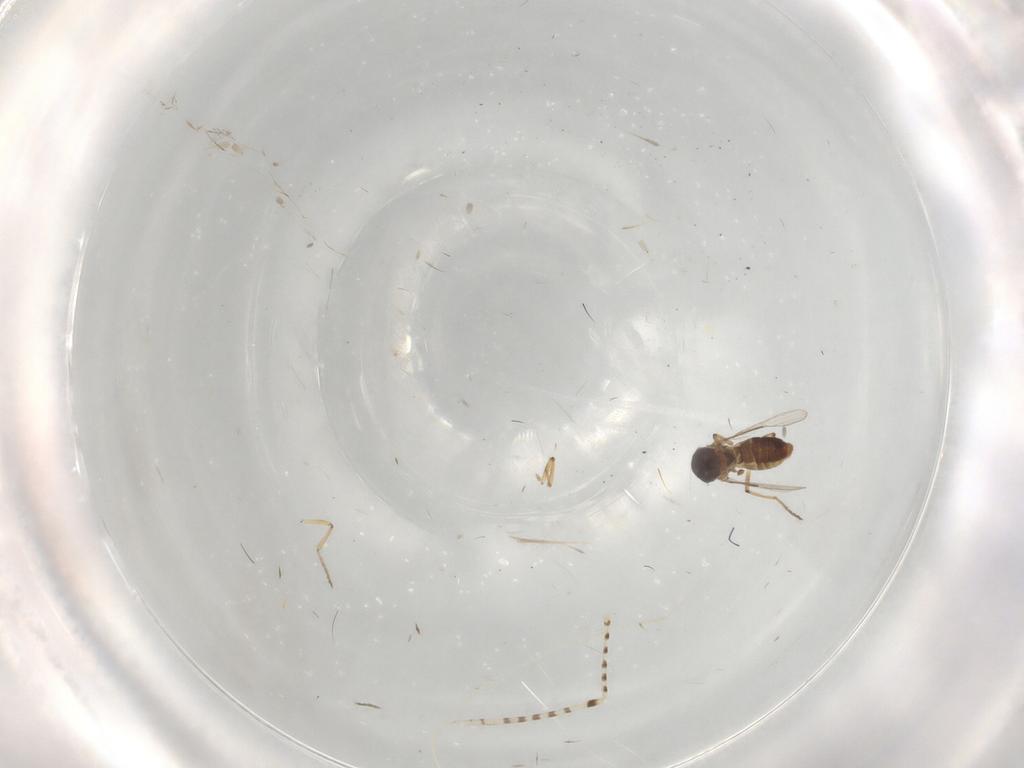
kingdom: Animalia
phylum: Arthropoda
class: Insecta
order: Diptera
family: Ceratopogonidae
